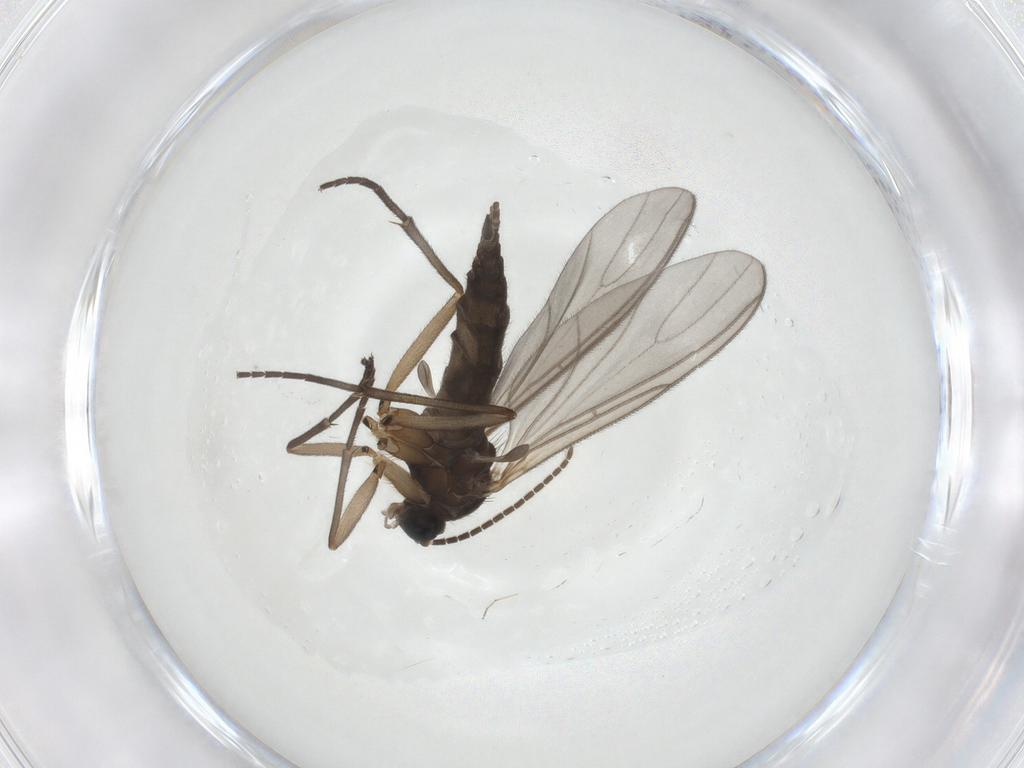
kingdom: Animalia
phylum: Arthropoda
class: Insecta
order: Diptera
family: Sciaridae
